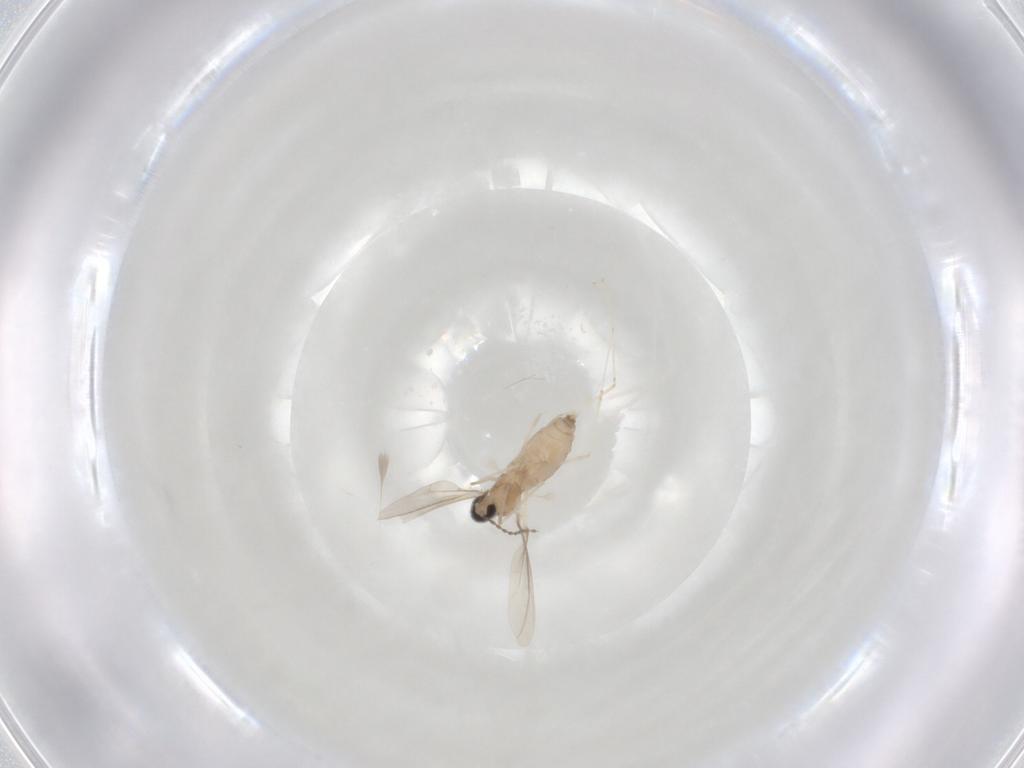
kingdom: Animalia
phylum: Arthropoda
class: Insecta
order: Diptera
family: Cecidomyiidae
